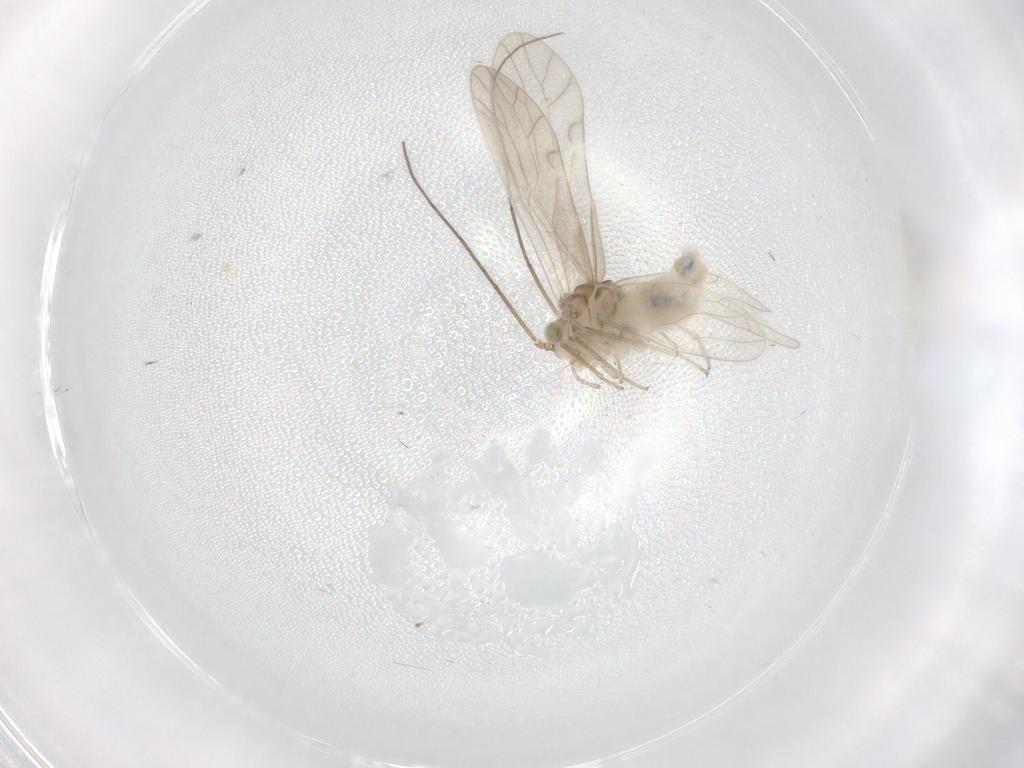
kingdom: Animalia
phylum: Arthropoda
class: Insecta
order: Psocodea
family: Caeciliusidae
